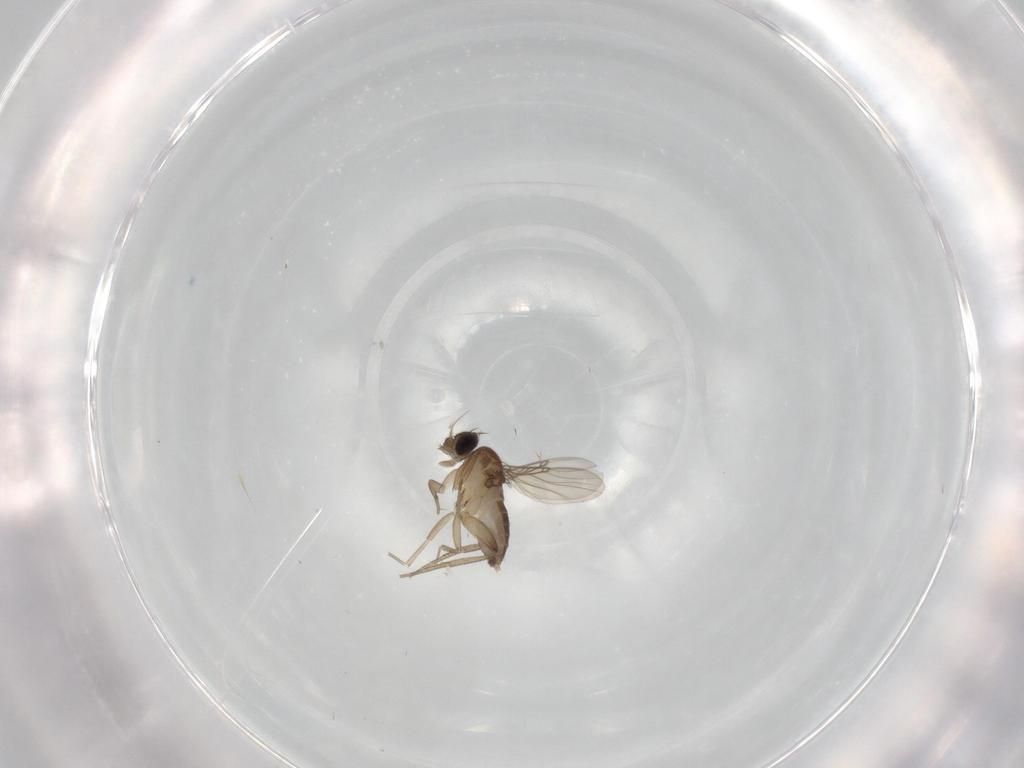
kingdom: Animalia
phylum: Arthropoda
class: Insecta
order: Diptera
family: Phoridae
